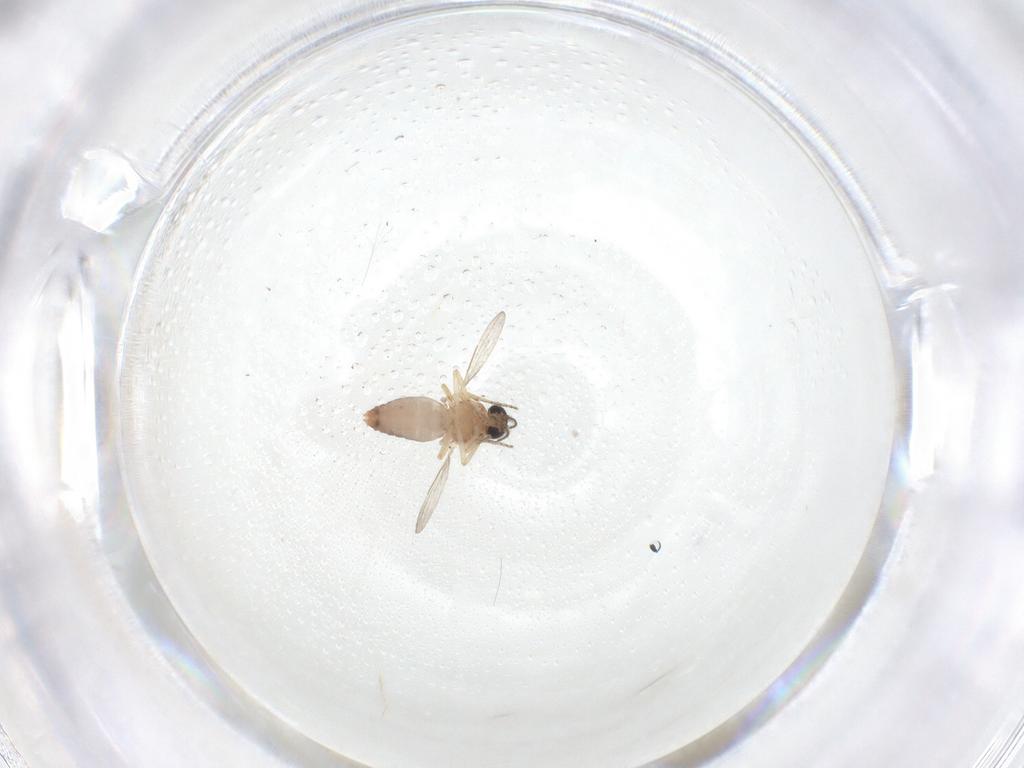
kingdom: Animalia
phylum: Arthropoda
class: Insecta
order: Diptera
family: Ceratopogonidae
